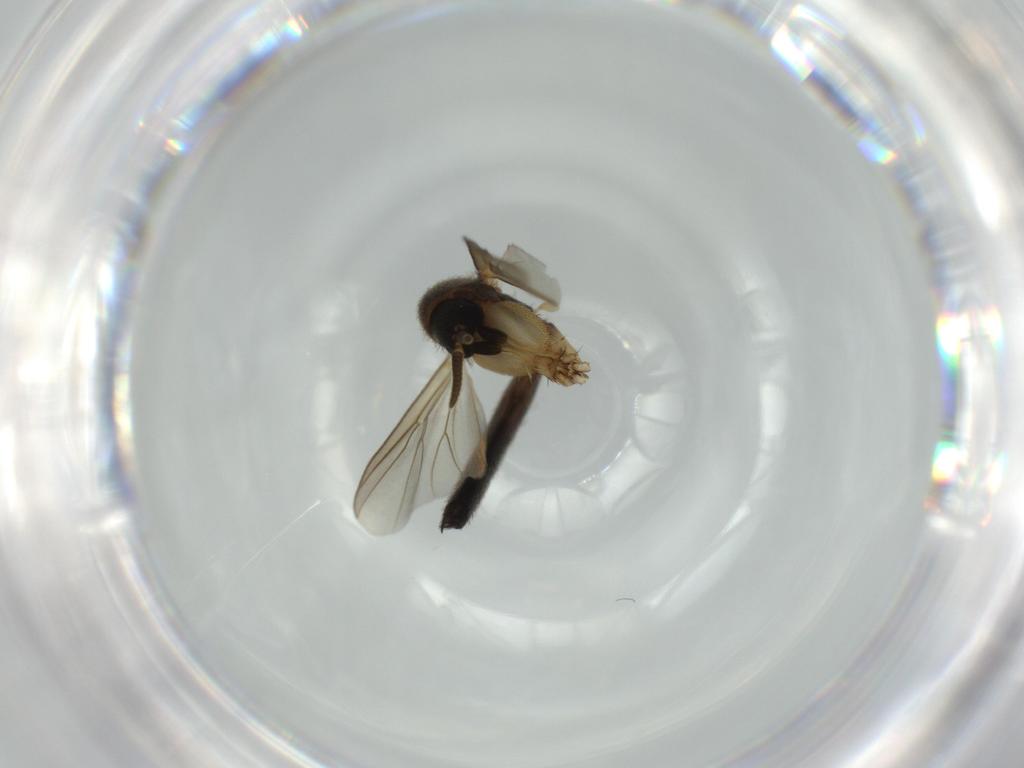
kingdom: Animalia
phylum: Arthropoda
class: Insecta
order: Diptera
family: Mycetophilidae
